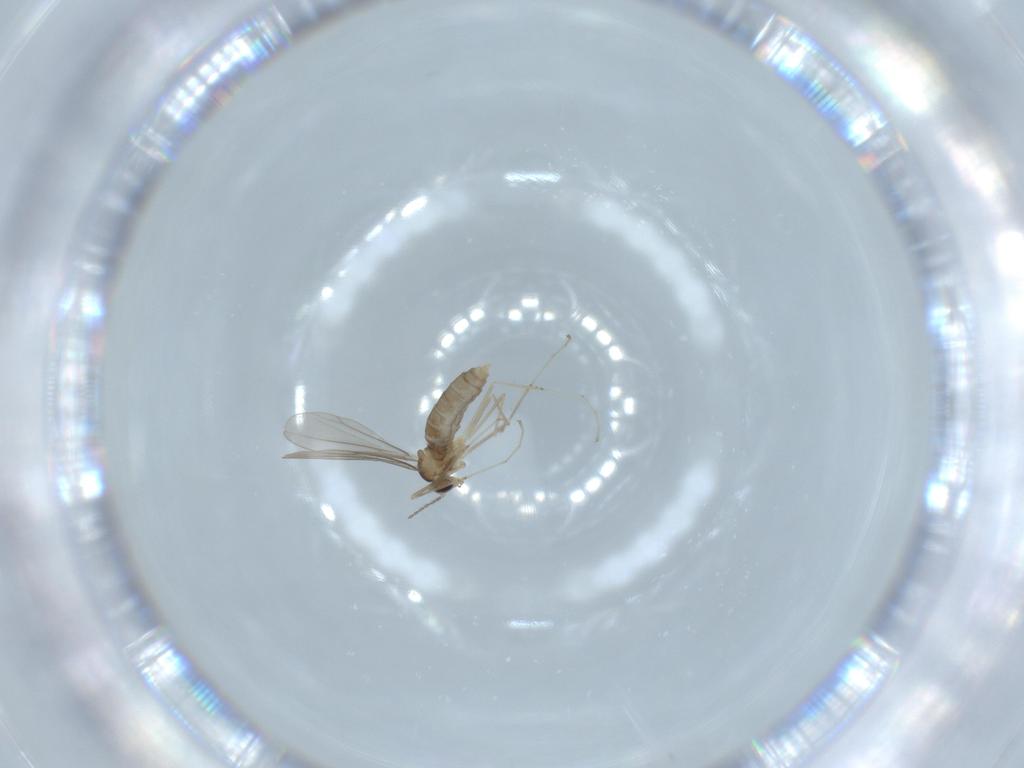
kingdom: Animalia
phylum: Arthropoda
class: Insecta
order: Diptera
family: Cecidomyiidae
